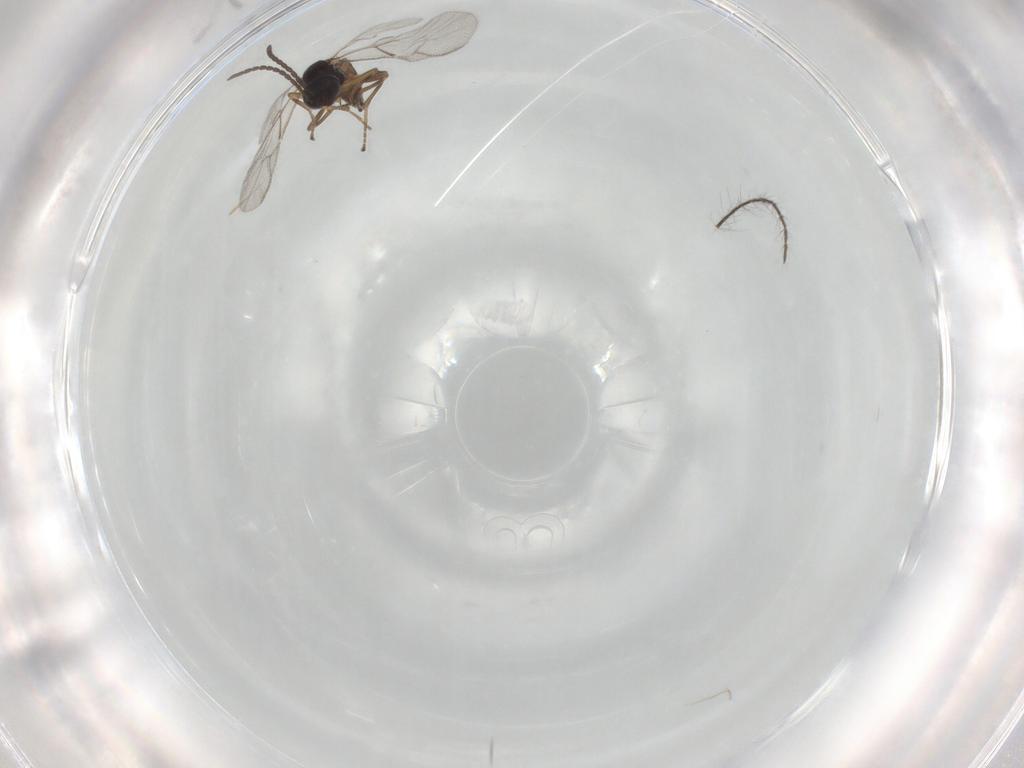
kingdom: Animalia
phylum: Arthropoda
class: Insecta
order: Hymenoptera
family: Braconidae
